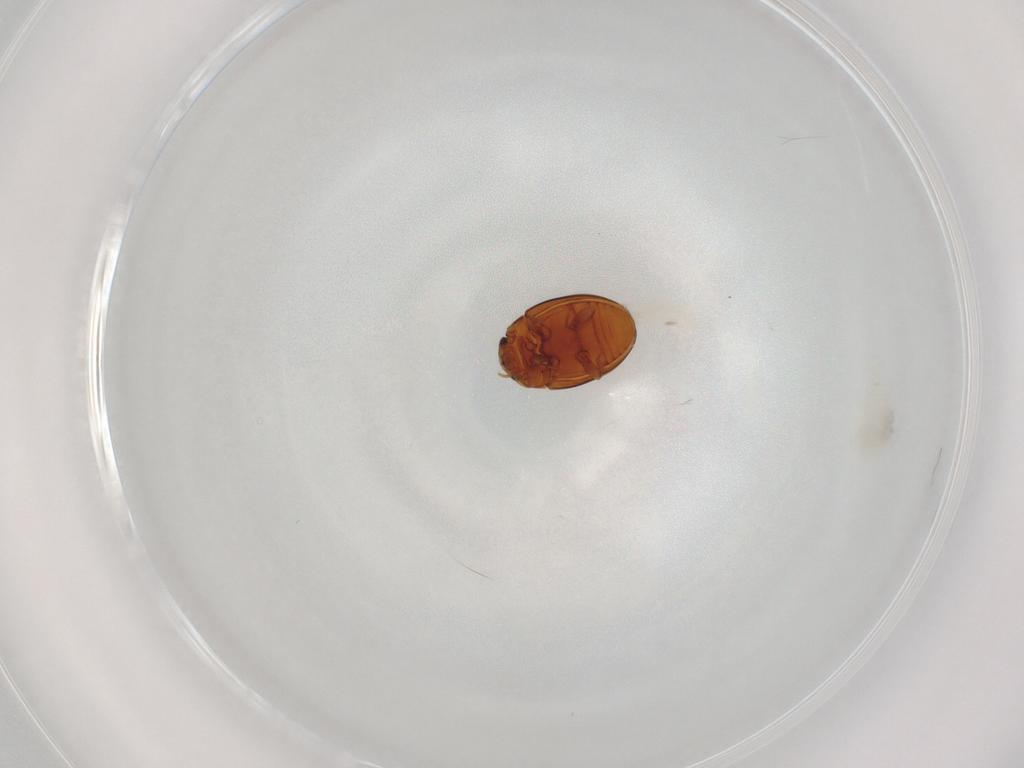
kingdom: Animalia
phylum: Arthropoda
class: Insecta
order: Coleoptera
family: Eupsilobiidae
